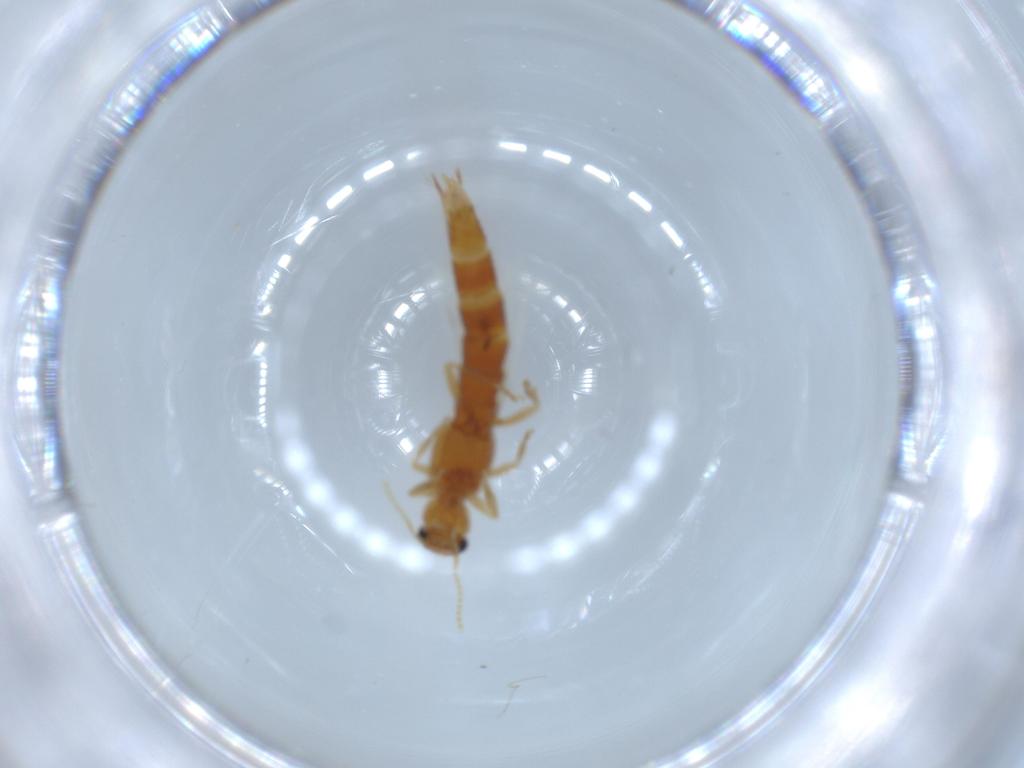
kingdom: Animalia
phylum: Arthropoda
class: Insecta
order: Coleoptera
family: Staphylinidae
